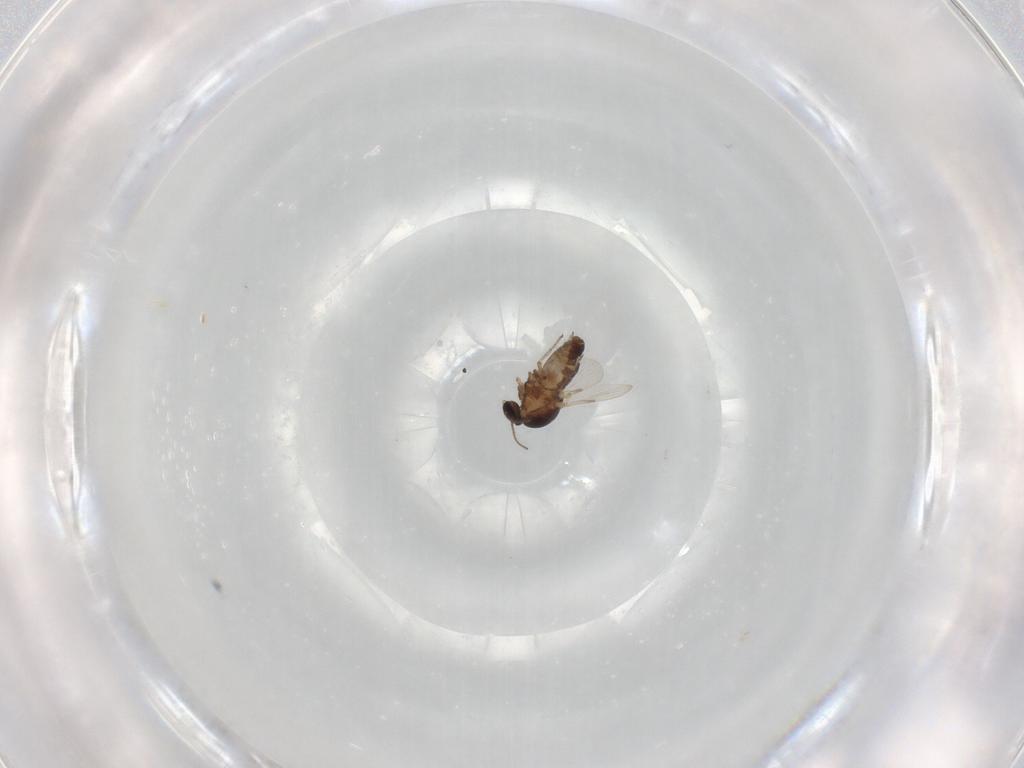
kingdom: Animalia
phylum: Arthropoda
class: Insecta
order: Diptera
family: Ceratopogonidae
